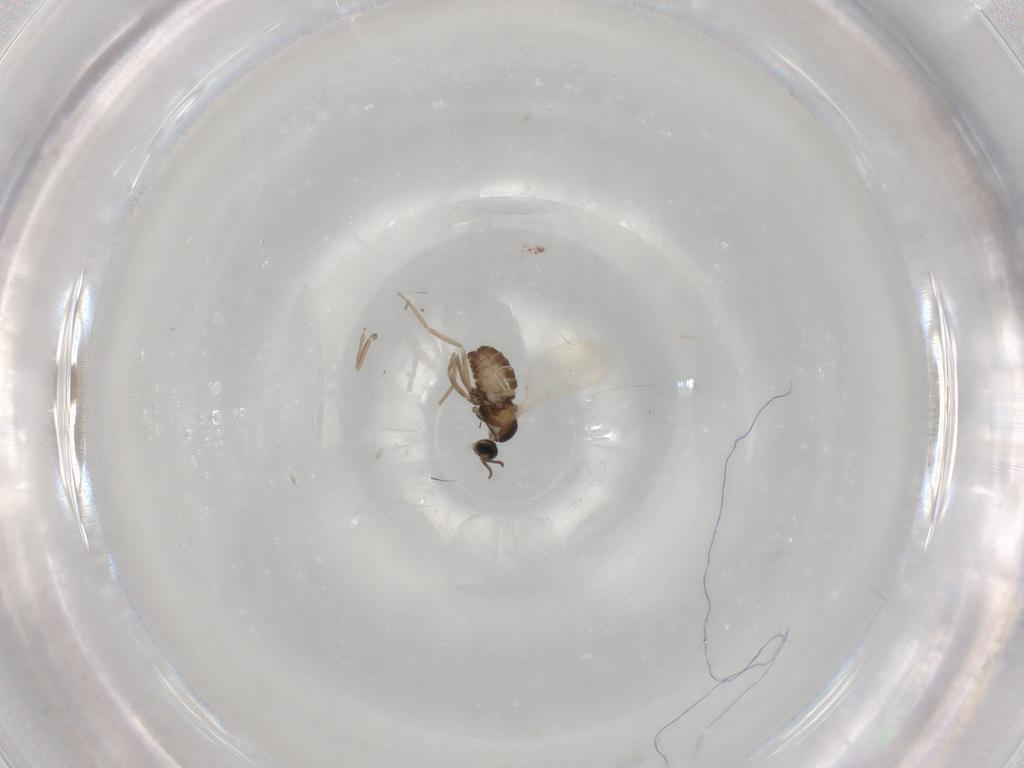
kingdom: Animalia
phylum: Arthropoda
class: Insecta
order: Diptera
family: Cecidomyiidae
